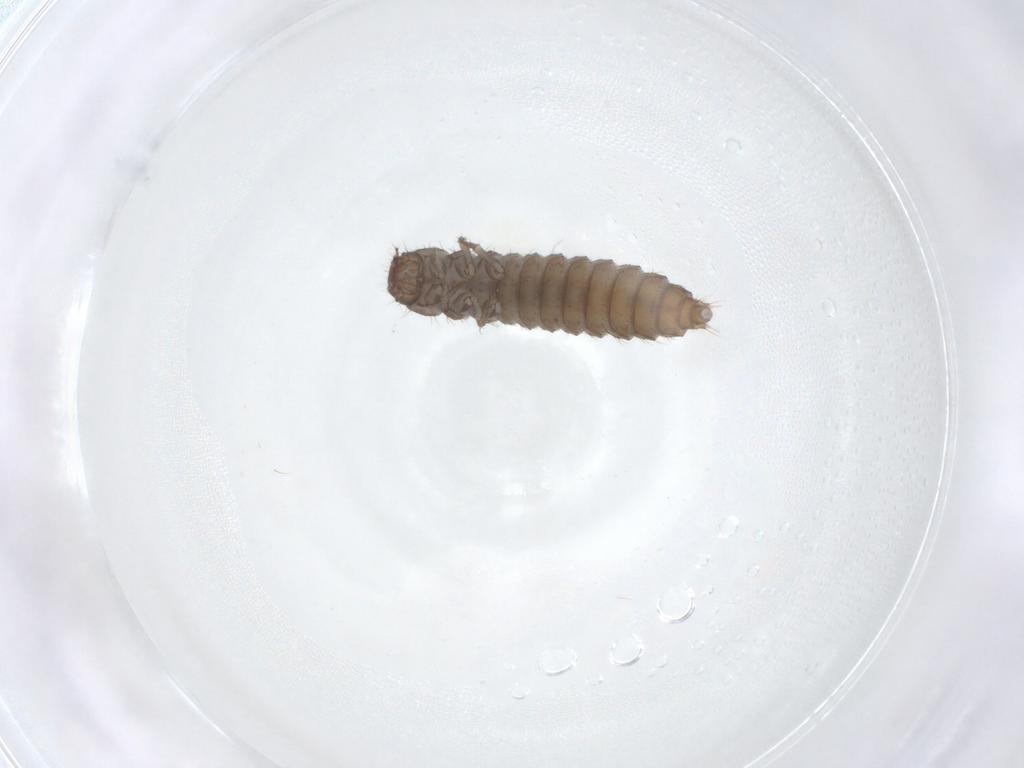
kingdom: Animalia
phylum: Arthropoda
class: Insecta
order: Coleoptera
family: Staphylinidae
